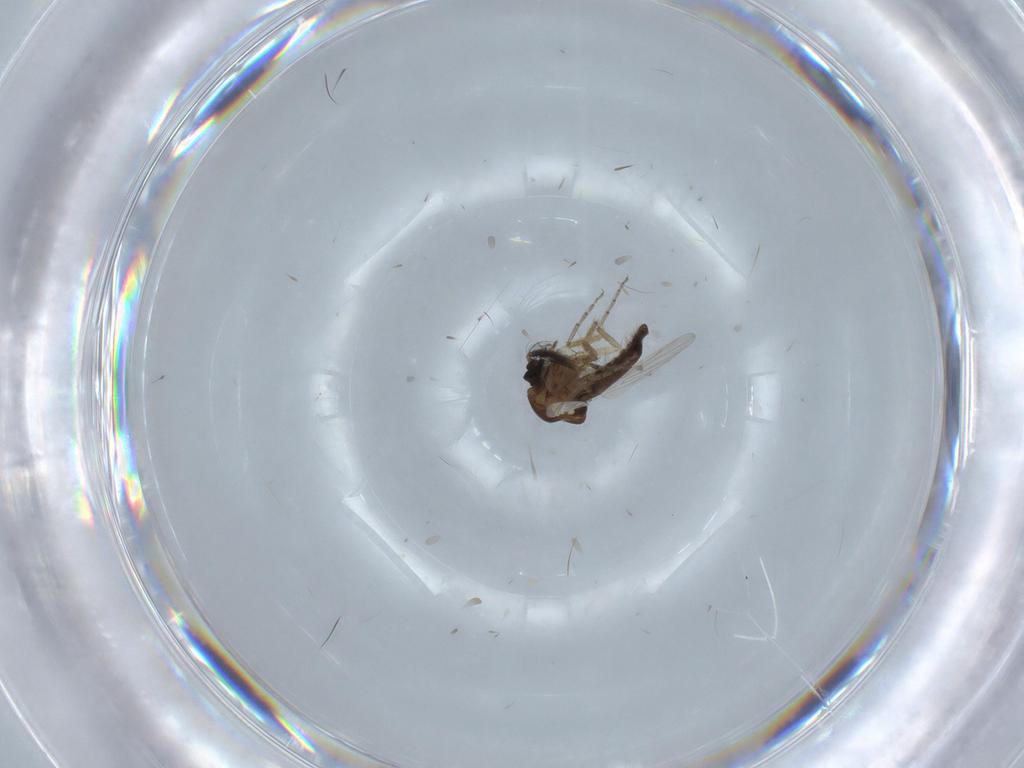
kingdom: Animalia
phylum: Arthropoda
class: Insecta
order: Diptera
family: Ceratopogonidae
